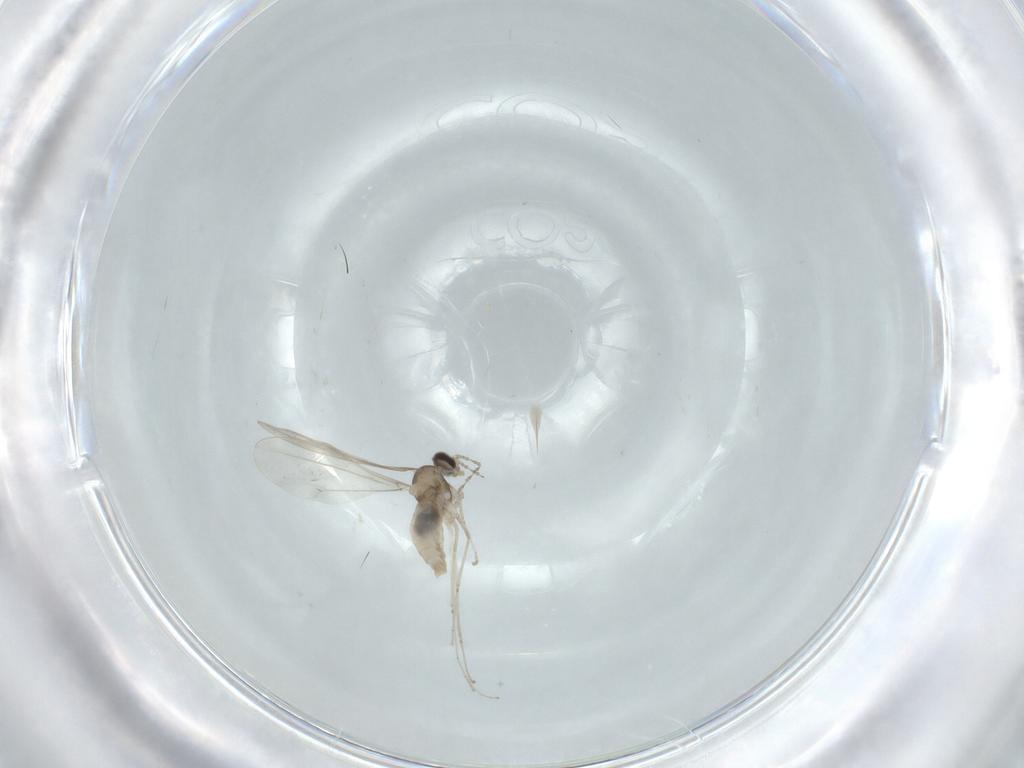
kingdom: Animalia
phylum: Arthropoda
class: Insecta
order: Diptera
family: Cecidomyiidae
